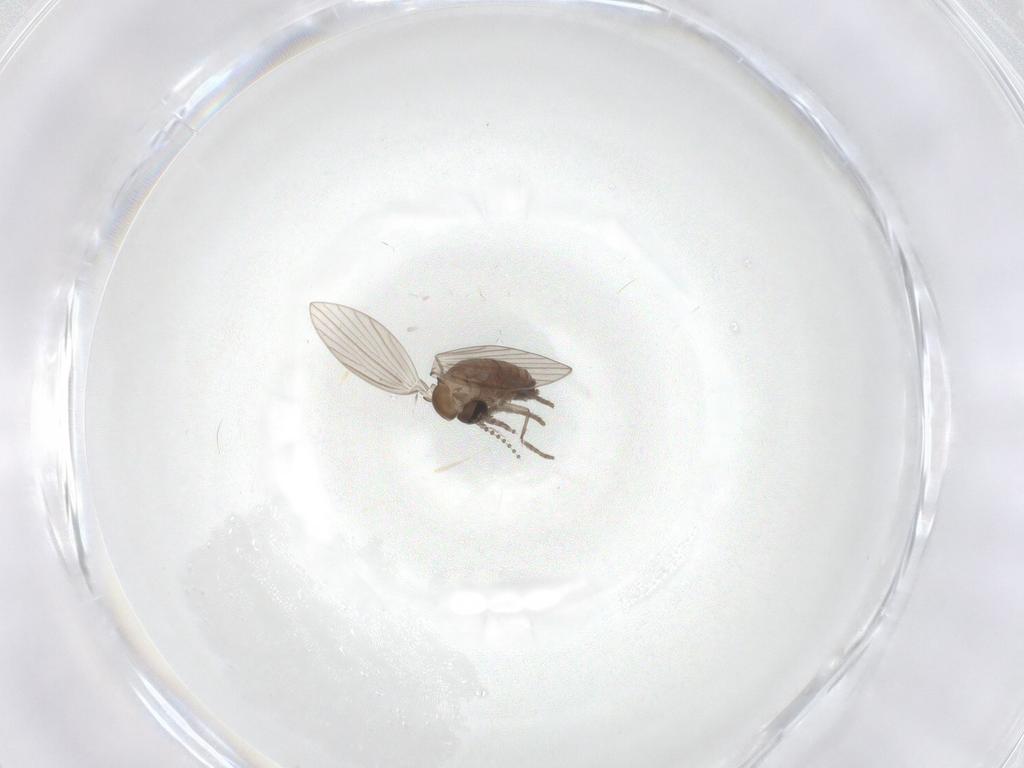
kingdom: Animalia
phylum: Arthropoda
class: Insecta
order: Diptera
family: Psychodidae
